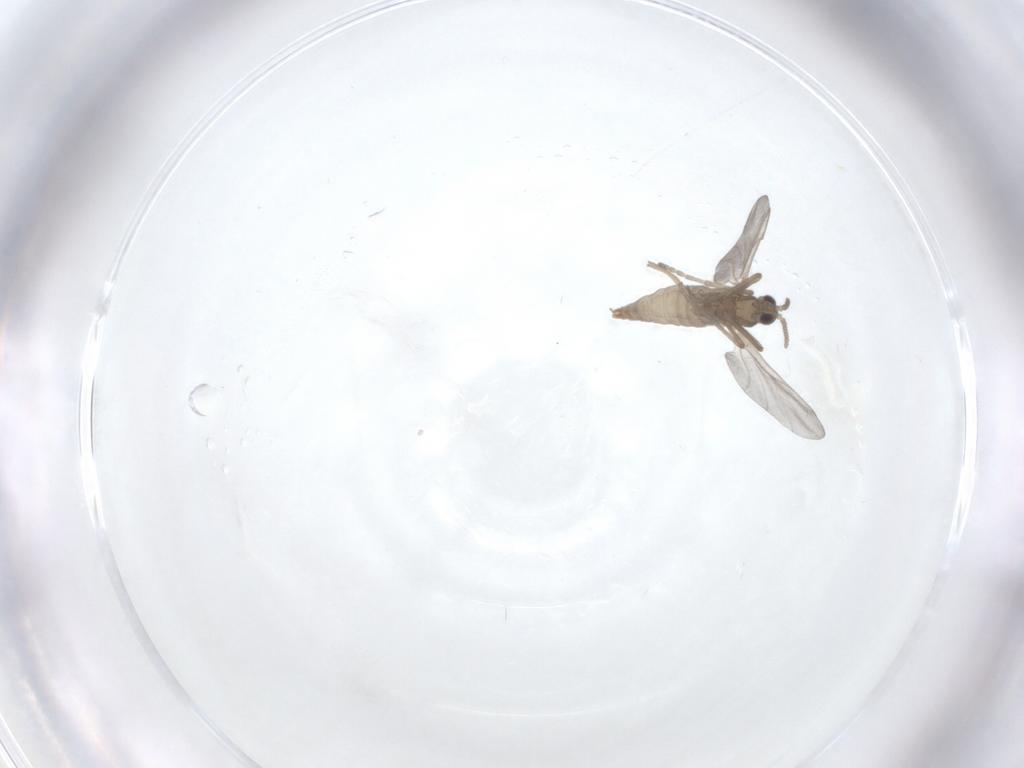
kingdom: Animalia
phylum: Arthropoda
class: Insecta
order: Diptera
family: Cecidomyiidae
